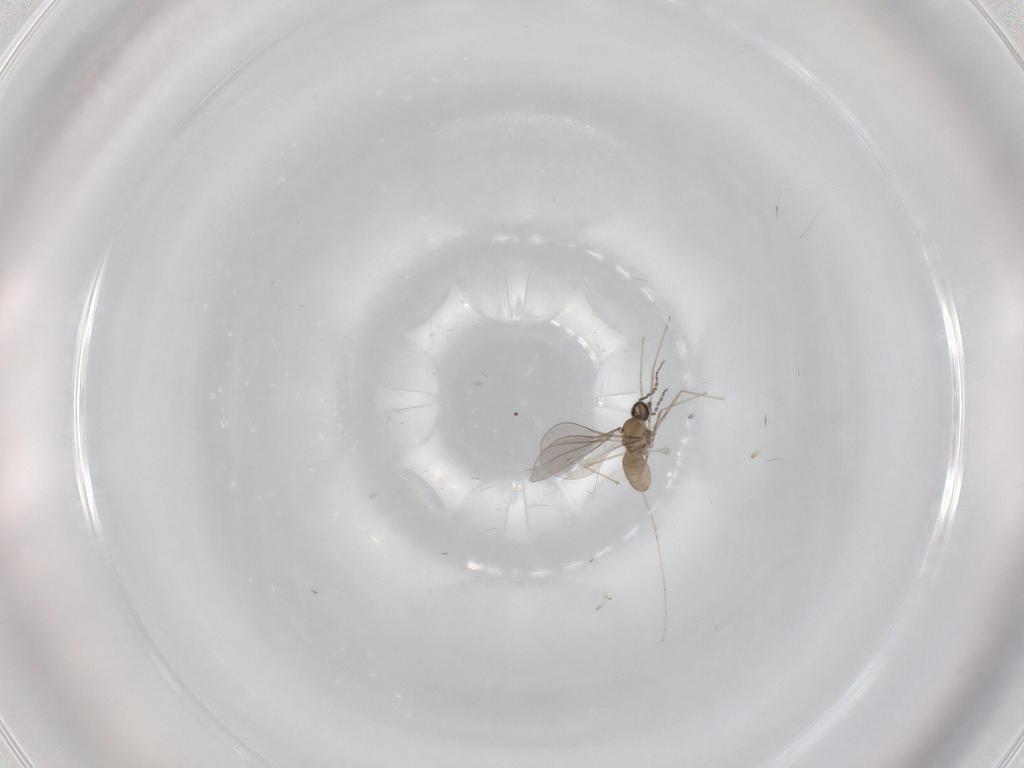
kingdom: Animalia
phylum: Arthropoda
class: Insecta
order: Diptera
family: Cecidomyiidae
